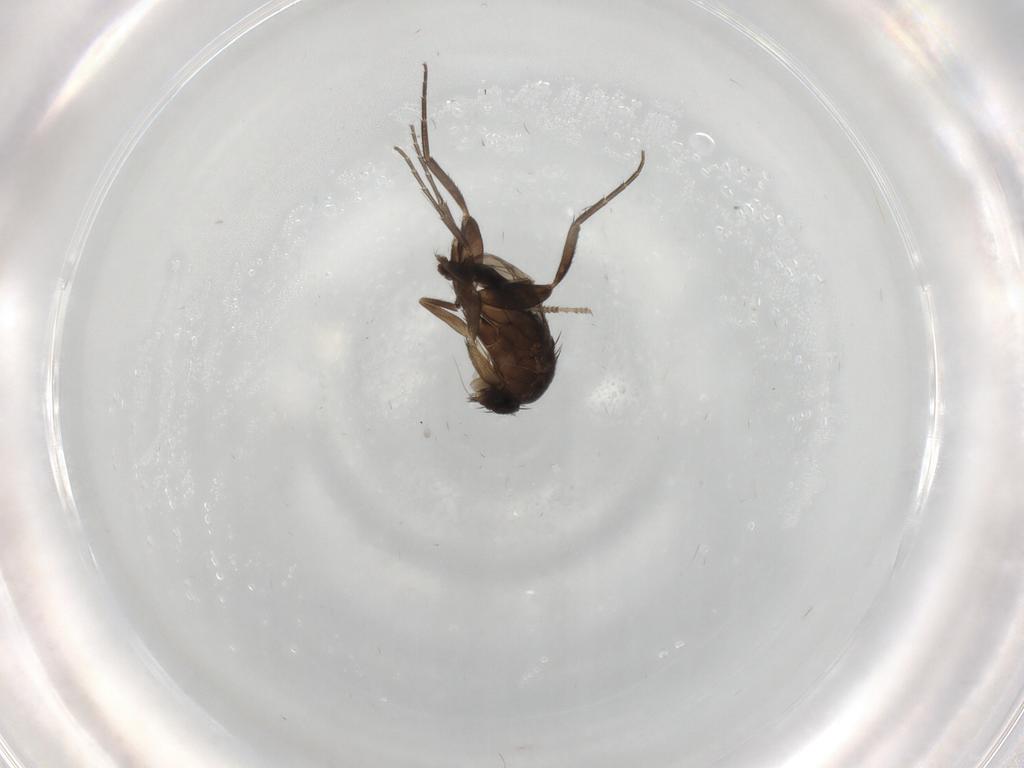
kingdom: Animalia
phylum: Arthropoda
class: Insecta
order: Diptera
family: Phoridae
